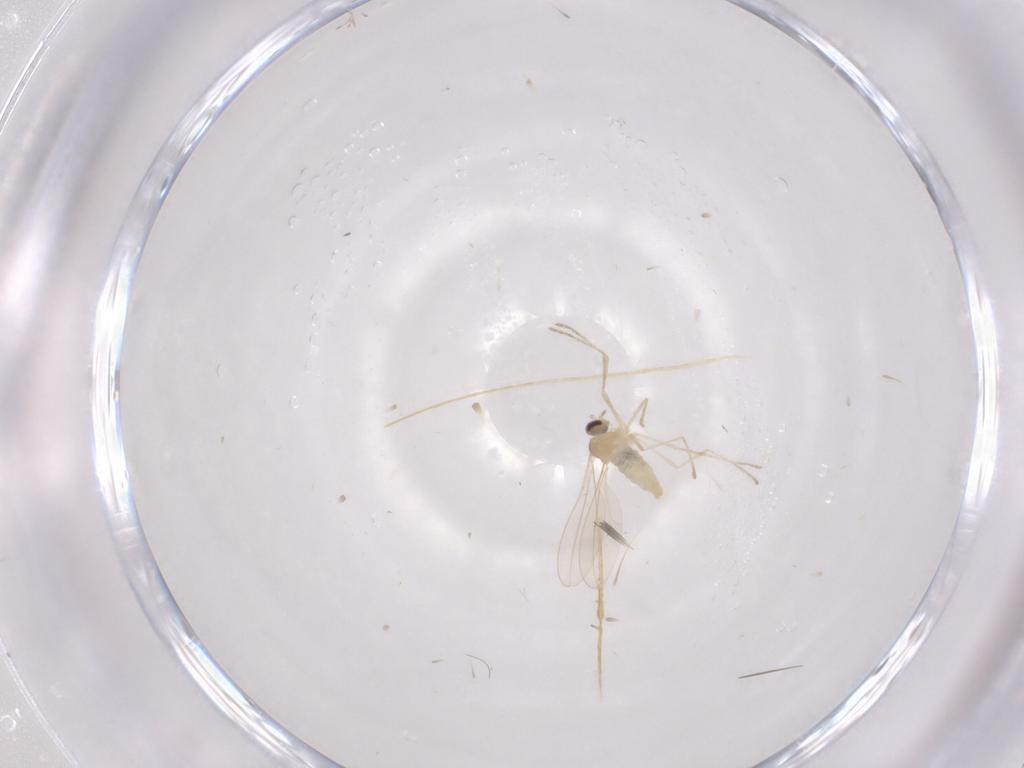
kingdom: Animalia
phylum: Arthropoda
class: Insecta
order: Diptera
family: Cecidomyiidae
